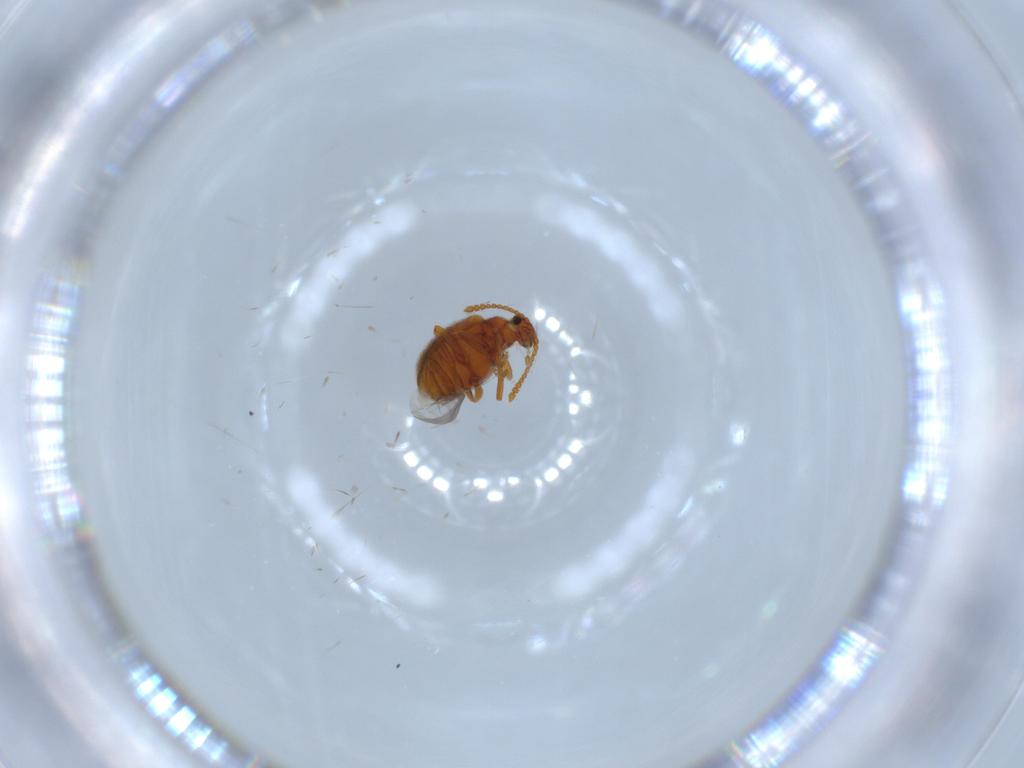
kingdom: Animalia
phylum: Arthropoda
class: Insecta
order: Coleoptera
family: Aderidae
